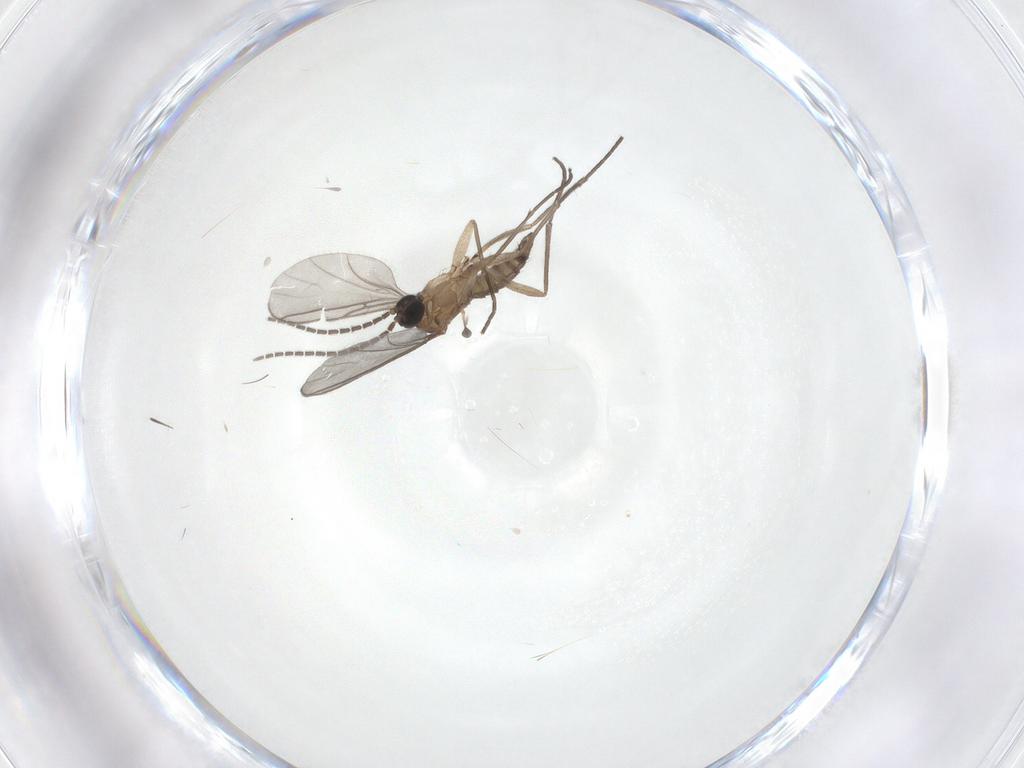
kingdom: Animalia
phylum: Arthropoda
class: Insecta
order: Diptera
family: Ceratopogonidae
